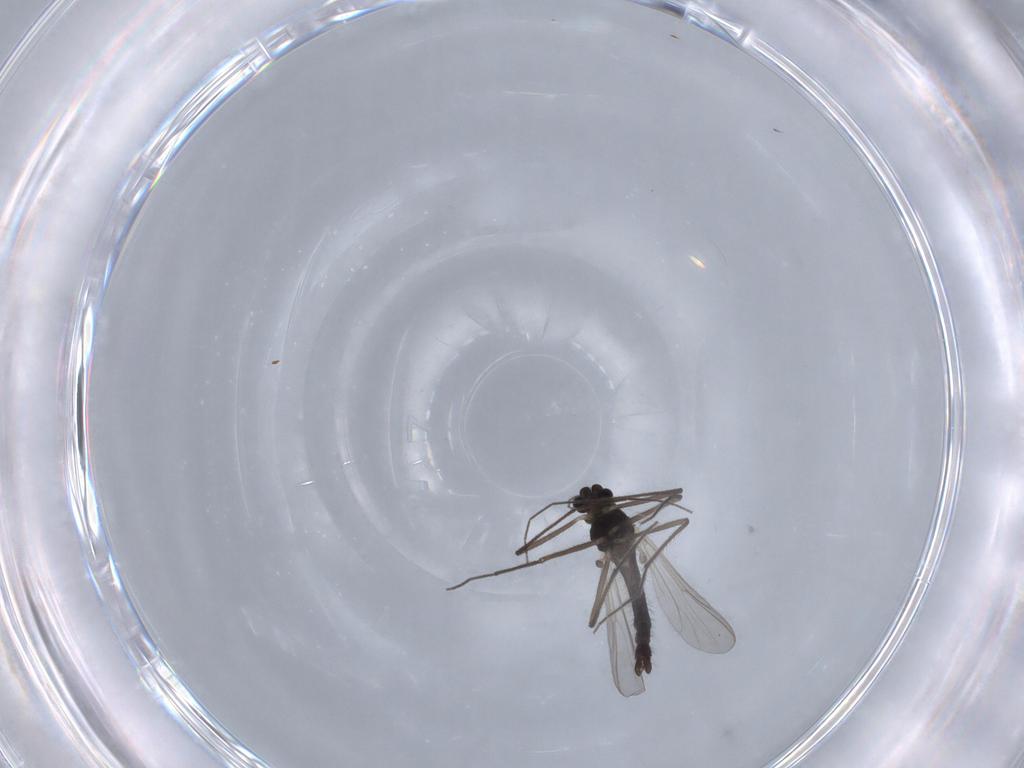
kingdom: Animalia
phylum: Arthropoda
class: Insecta
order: Diptera
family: Chironomidae
